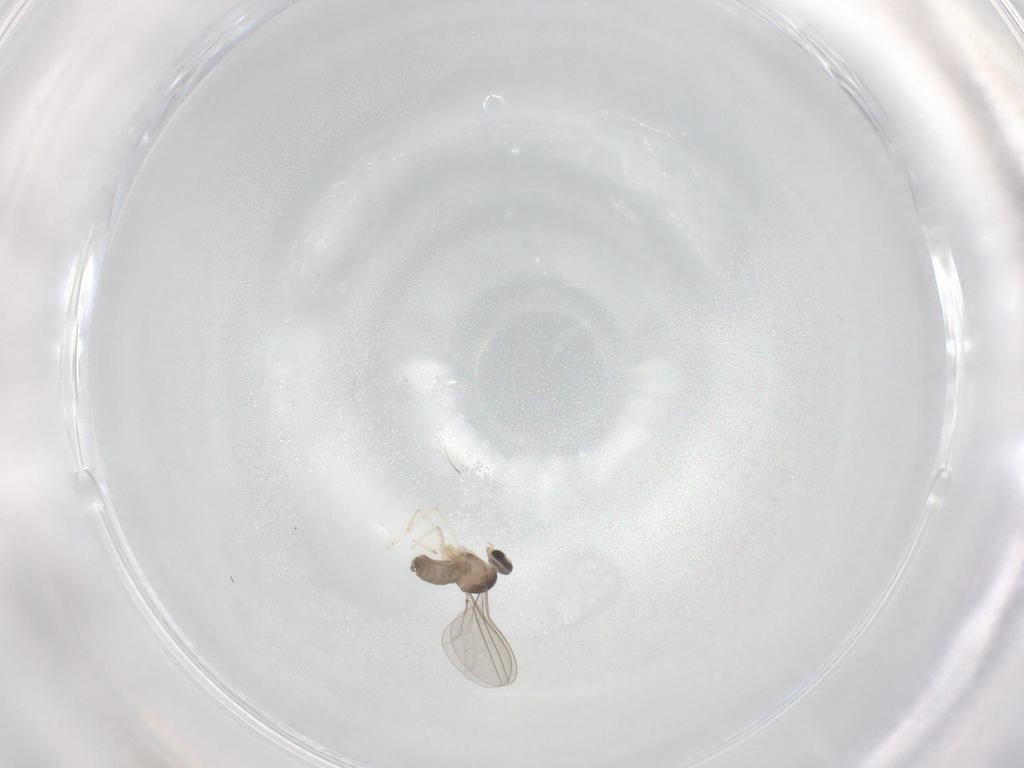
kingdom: Animalia
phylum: Arthropoda
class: Insecta
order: Diptera
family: Cecidomyiidae
